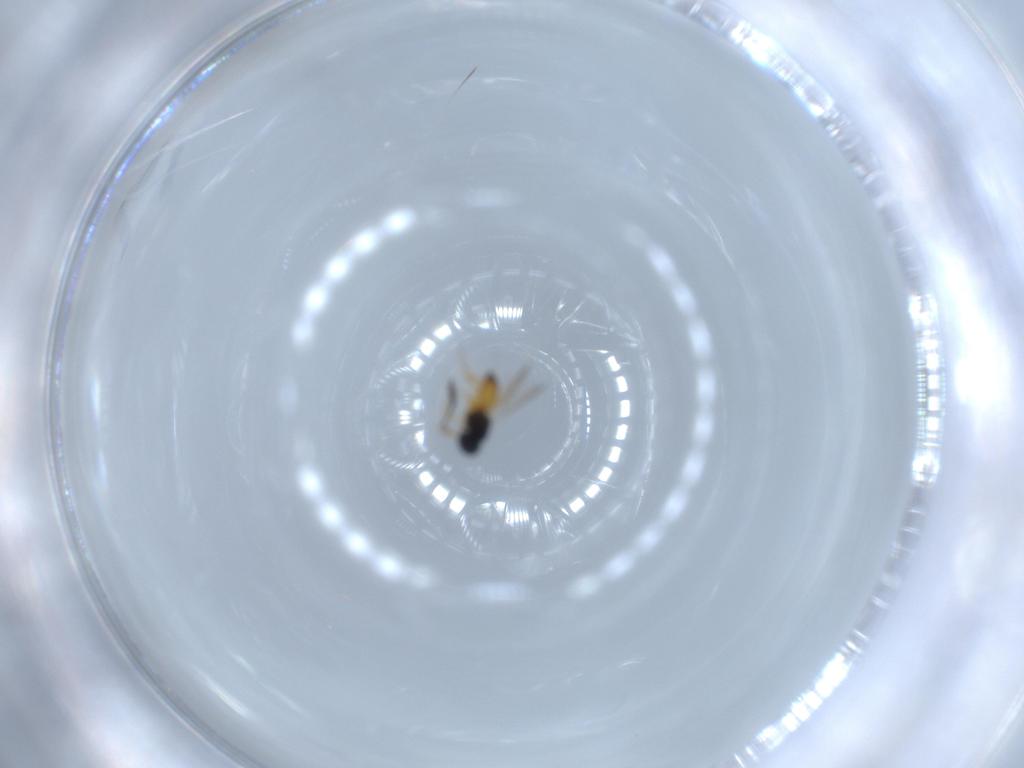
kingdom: Animalia
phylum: Arthropoda
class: Insecta
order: Hymenoptera
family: Scelionidae
